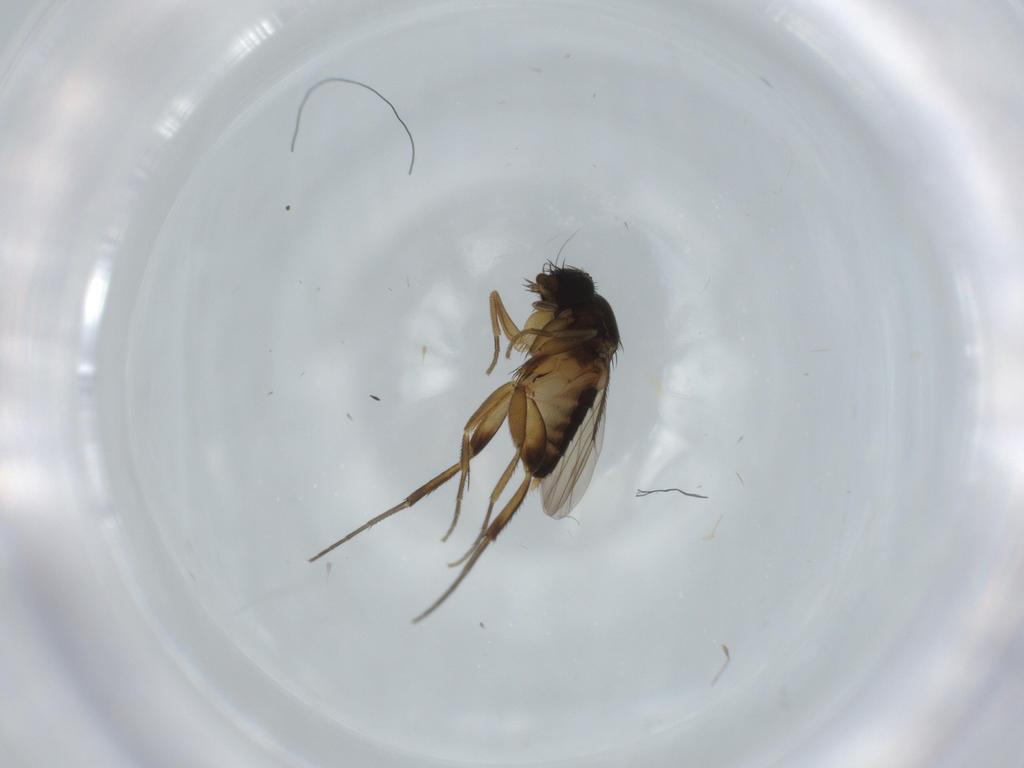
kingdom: Animalia
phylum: Arthropoda
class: Insecta
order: Diptera
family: Phoridae
